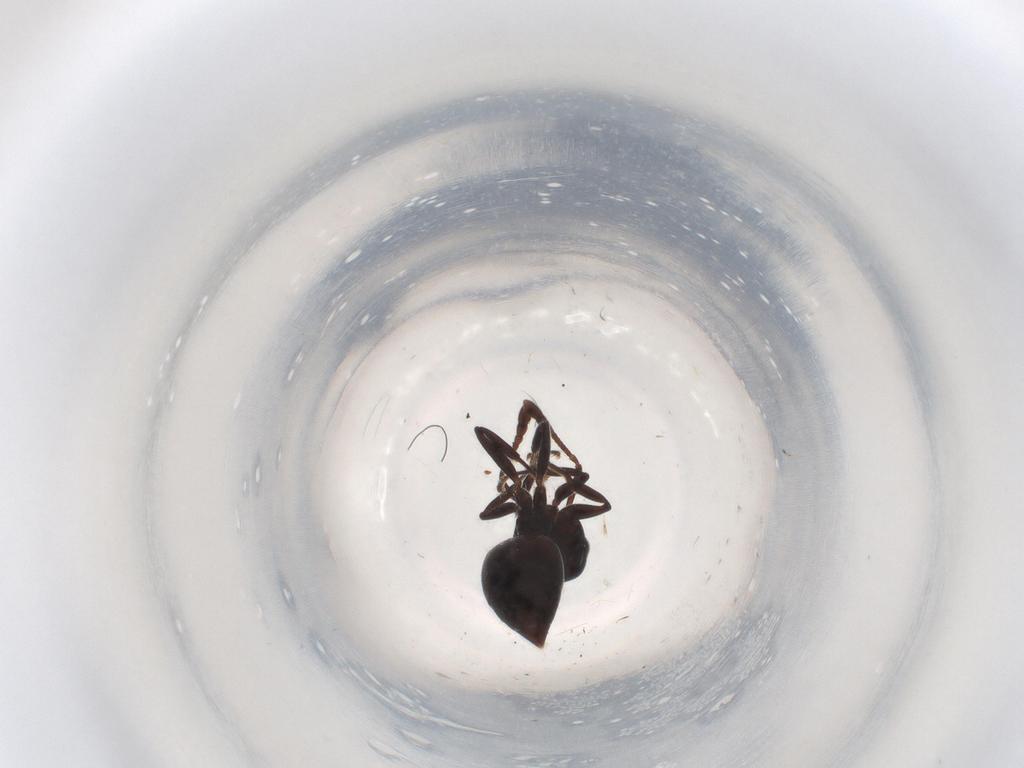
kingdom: Animalia
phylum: Arthropoda
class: Insecta
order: Hymenoptera
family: Formicidae
